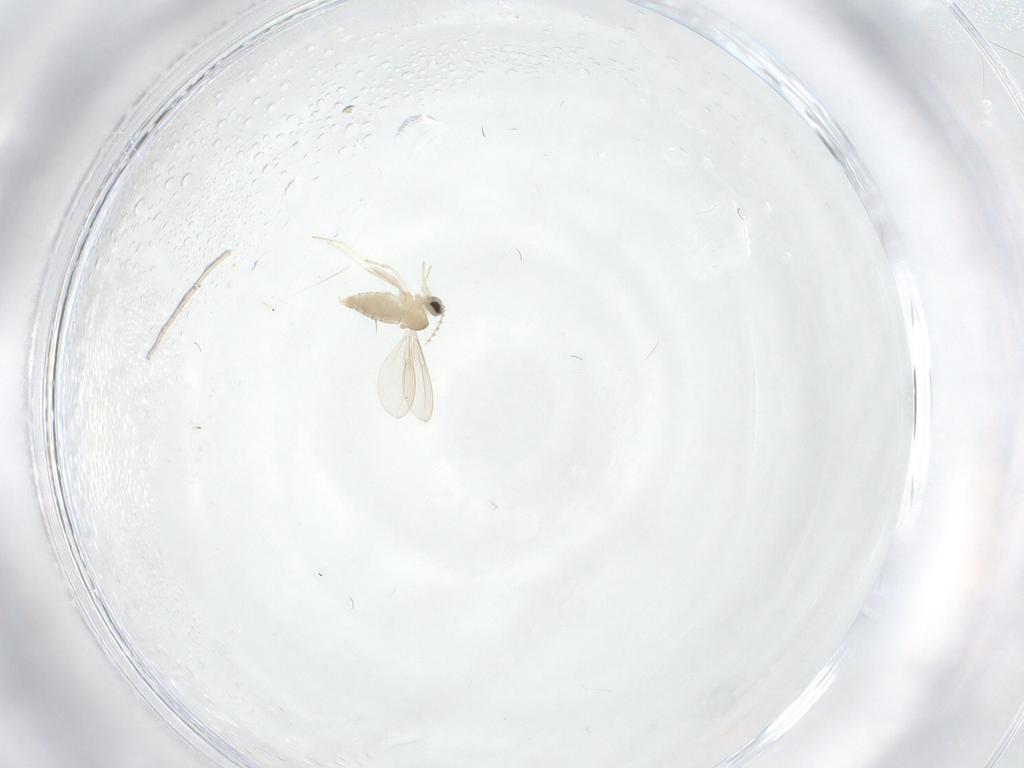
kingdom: Animalia
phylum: Arthropoda
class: Insecta
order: Diptera
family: Cecidomyiidae
